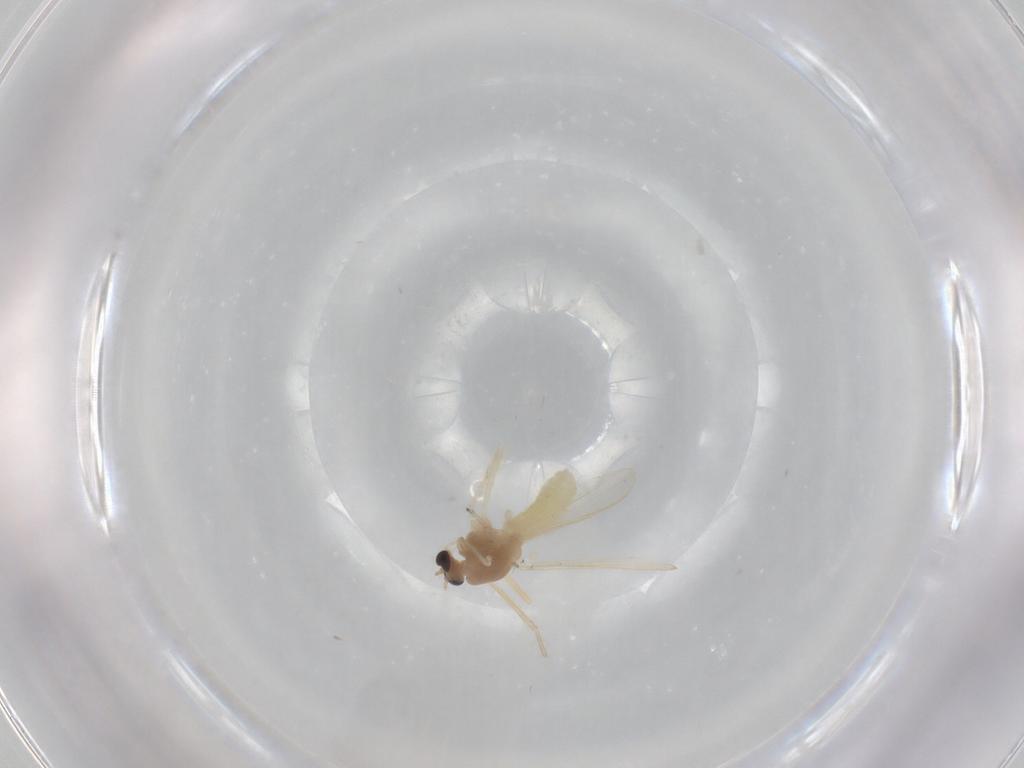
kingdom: Animalia
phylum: Arthropoda
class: Insecta
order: Diptera
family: Chironomidae
